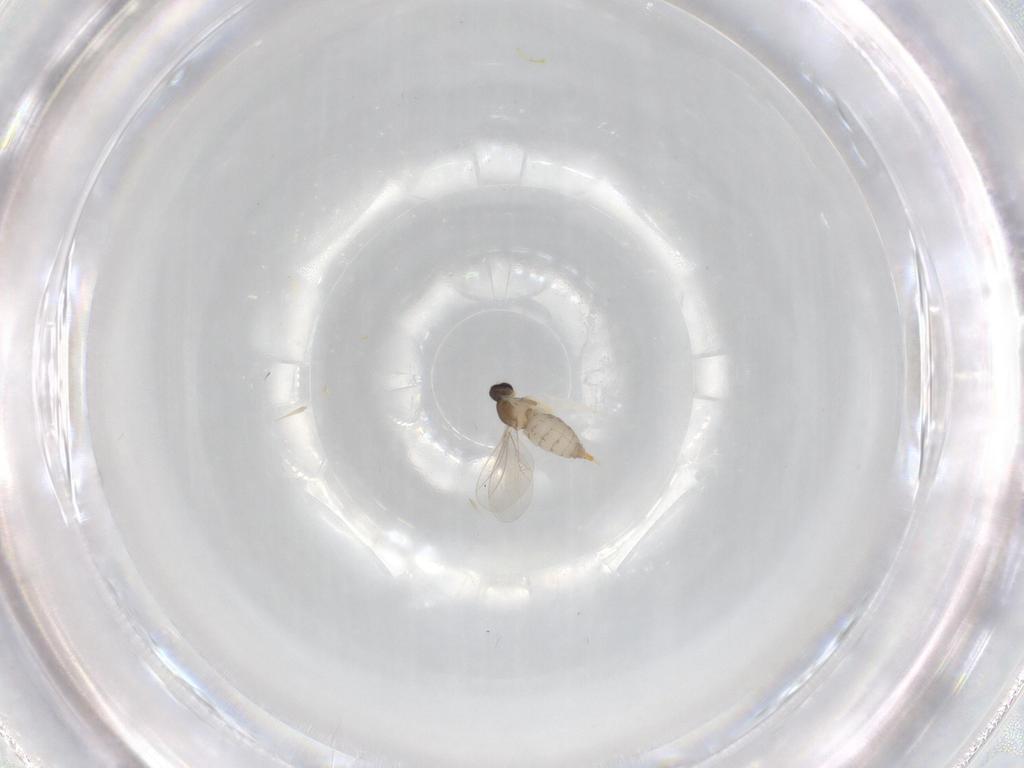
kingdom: Animalia
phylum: Arthropoda
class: Insecta
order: Diptera
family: Cecidomyiidae
